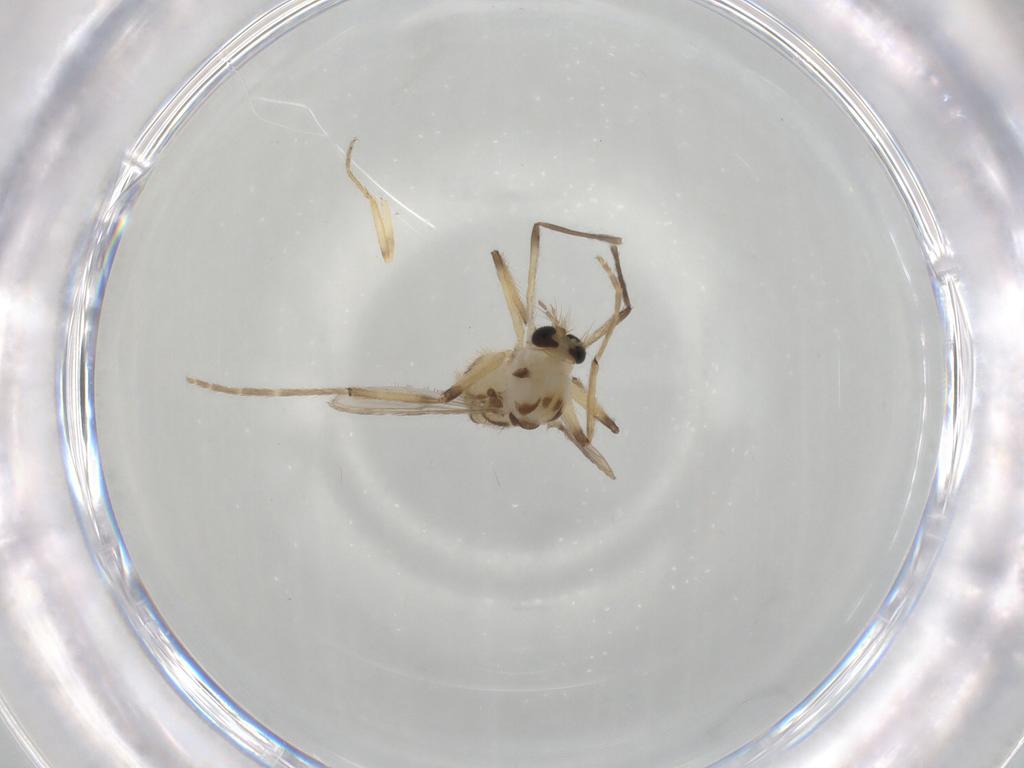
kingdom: Animalia
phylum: Arthropoda
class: Insecta
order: Diptera
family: Chironomidae
